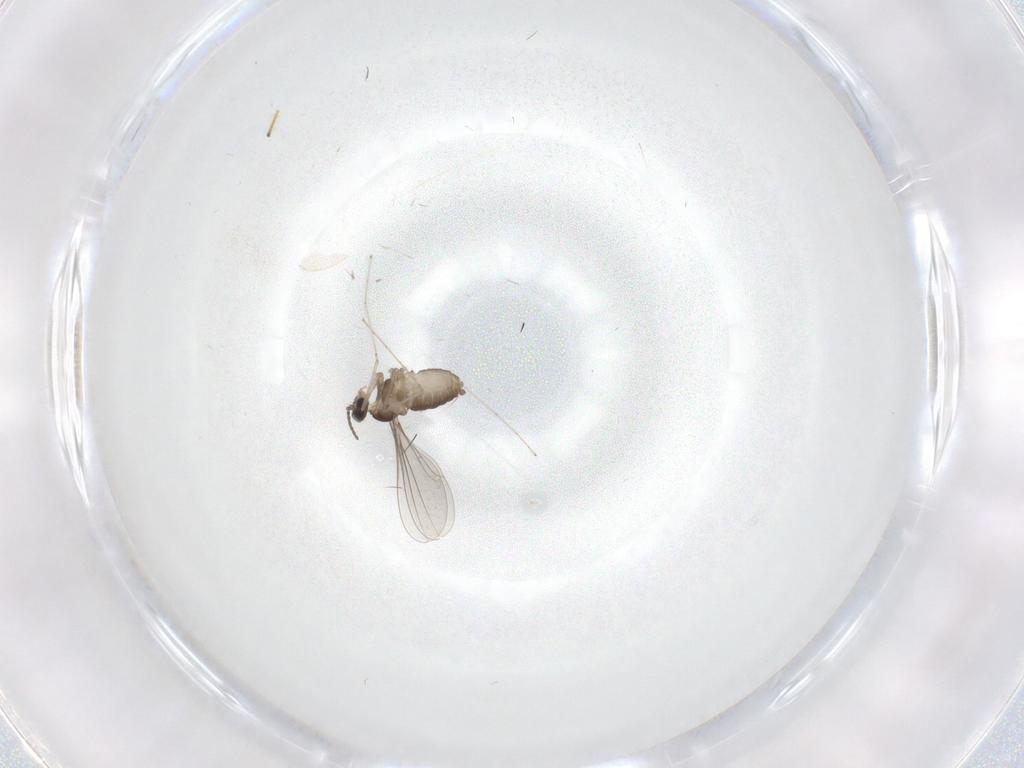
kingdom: Animalia
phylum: Arthropoda
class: Insecta
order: Diptera
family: Cecidomyiidae
